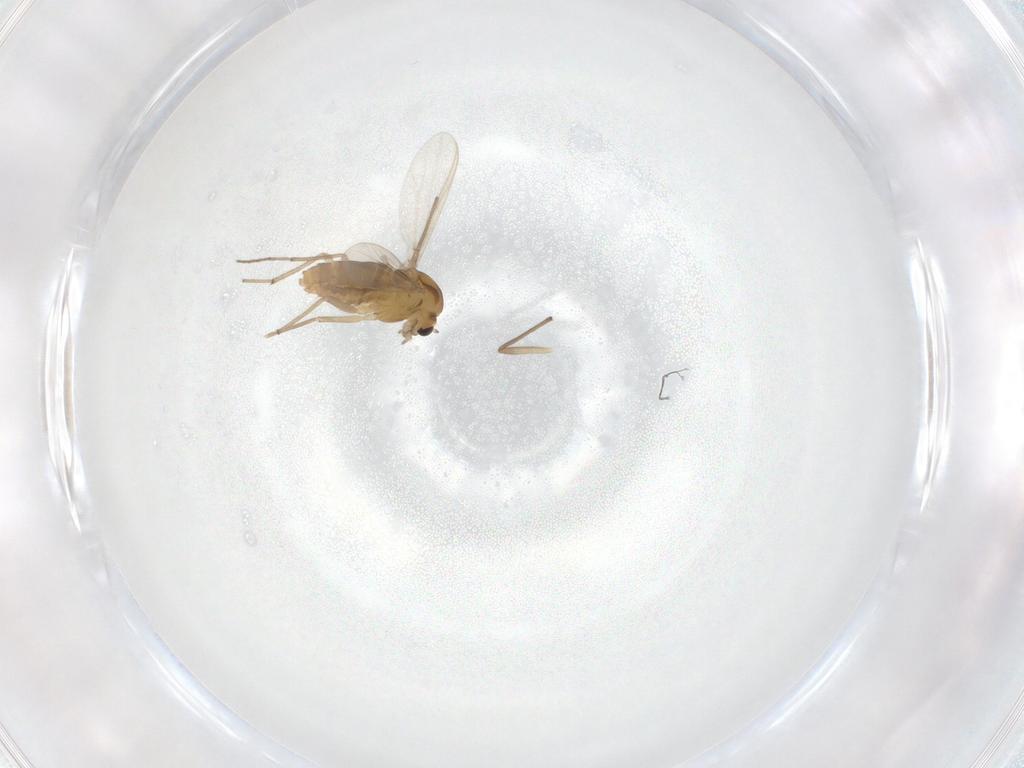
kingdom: Animalia
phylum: Arthropoda
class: Insecta
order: Diptera
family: Chironomidae
